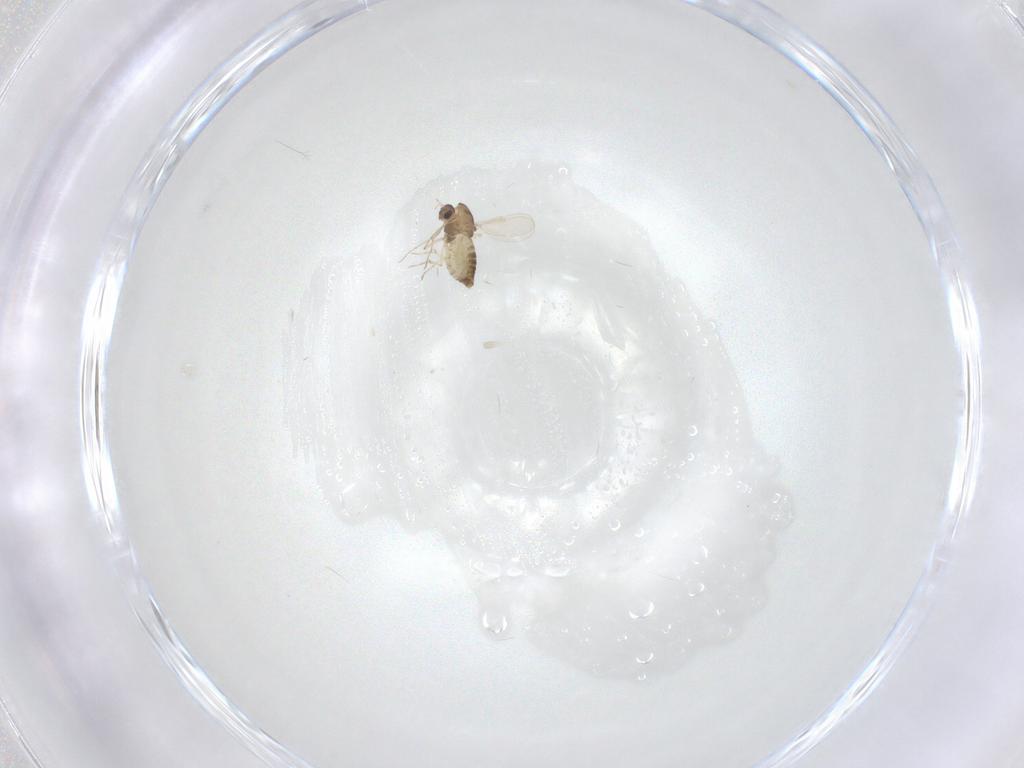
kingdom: Animalia
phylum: Arthropoda
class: Insecta
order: Diptera
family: Chironomidae
